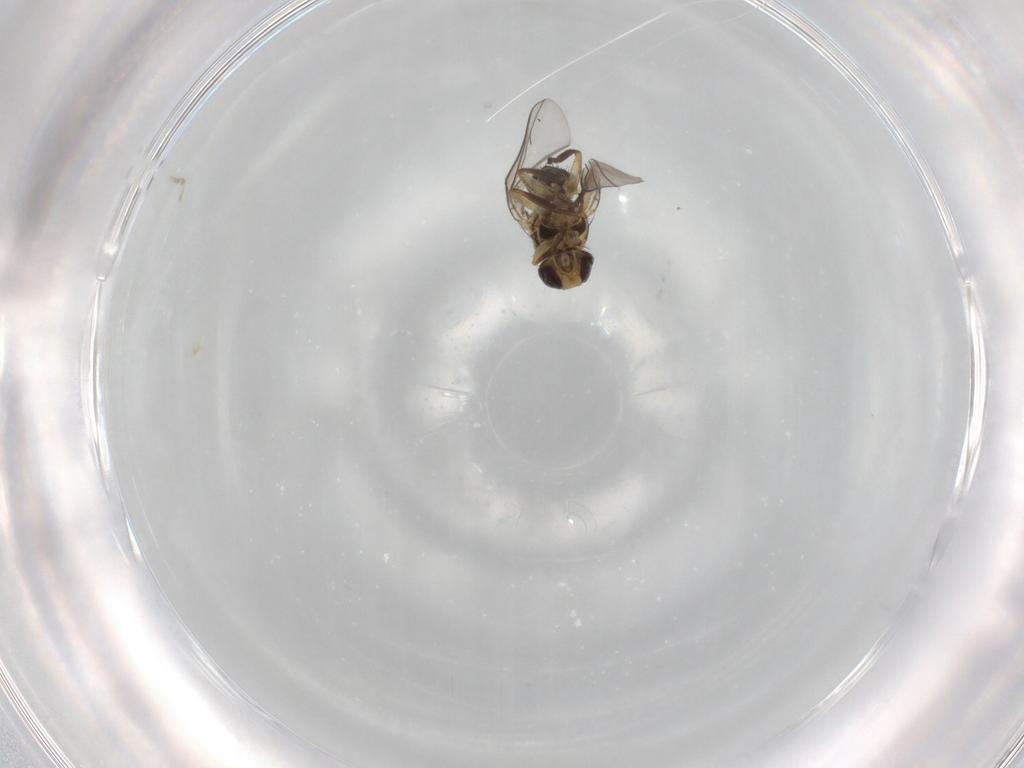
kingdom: Animalia
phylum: Arthropoda
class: Insecta
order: Diptera
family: Agromyzidae
